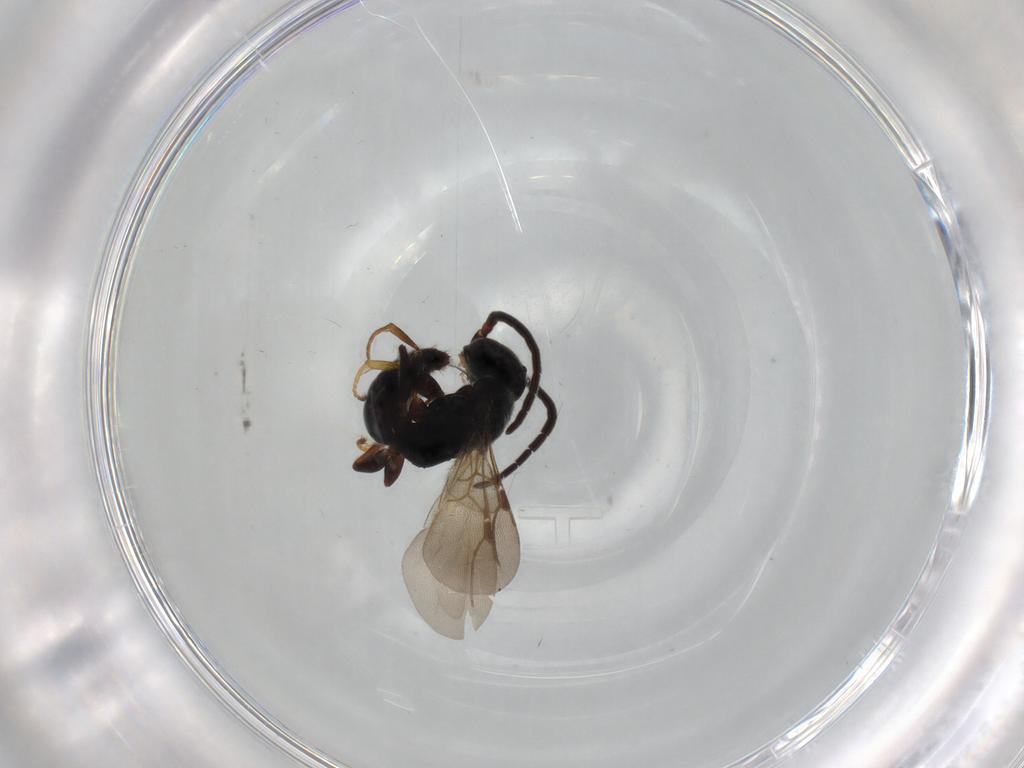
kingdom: Animalia
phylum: Arthropoda
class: Insecta
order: Hymenoptera
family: Bethylidae
